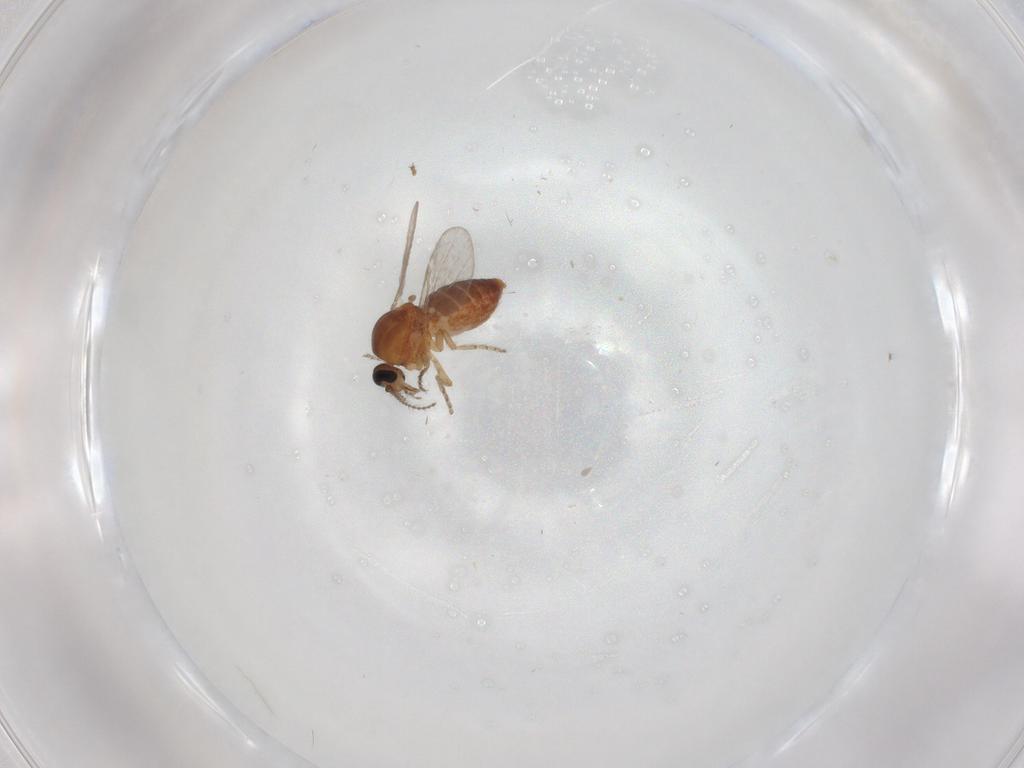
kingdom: Animalia
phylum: Arthropoda
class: Insecta
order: Diptera
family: Ceratopogonidae
